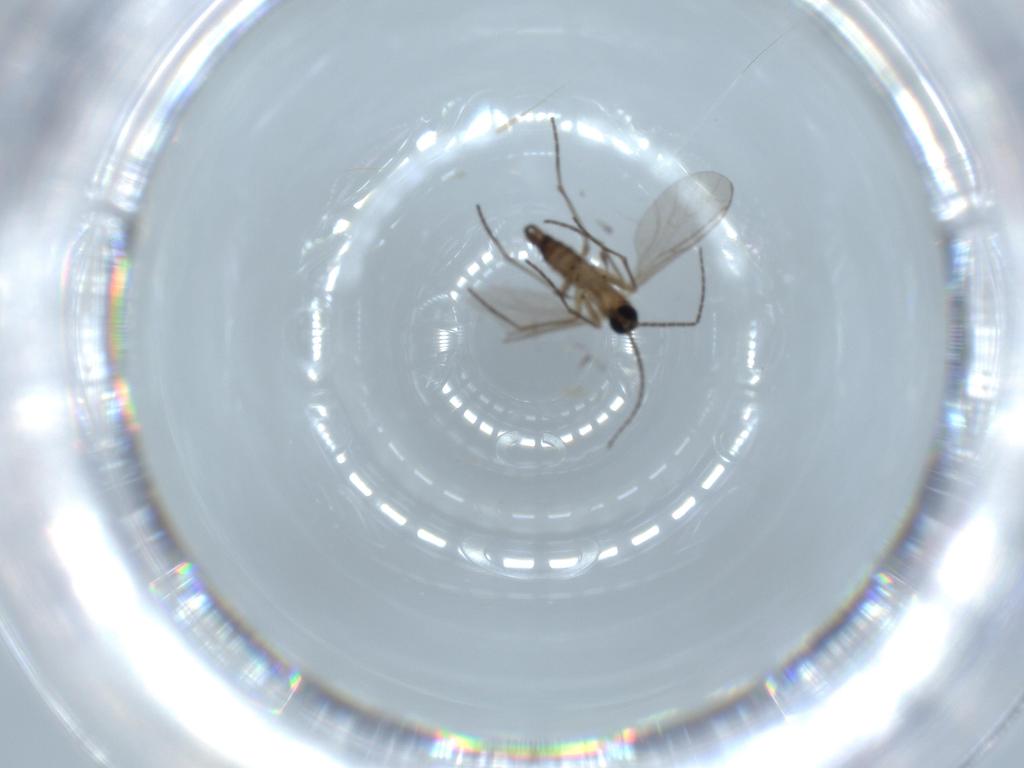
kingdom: Animalia
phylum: Arthropoda
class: Insecta
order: Diptera
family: Sciaridae
